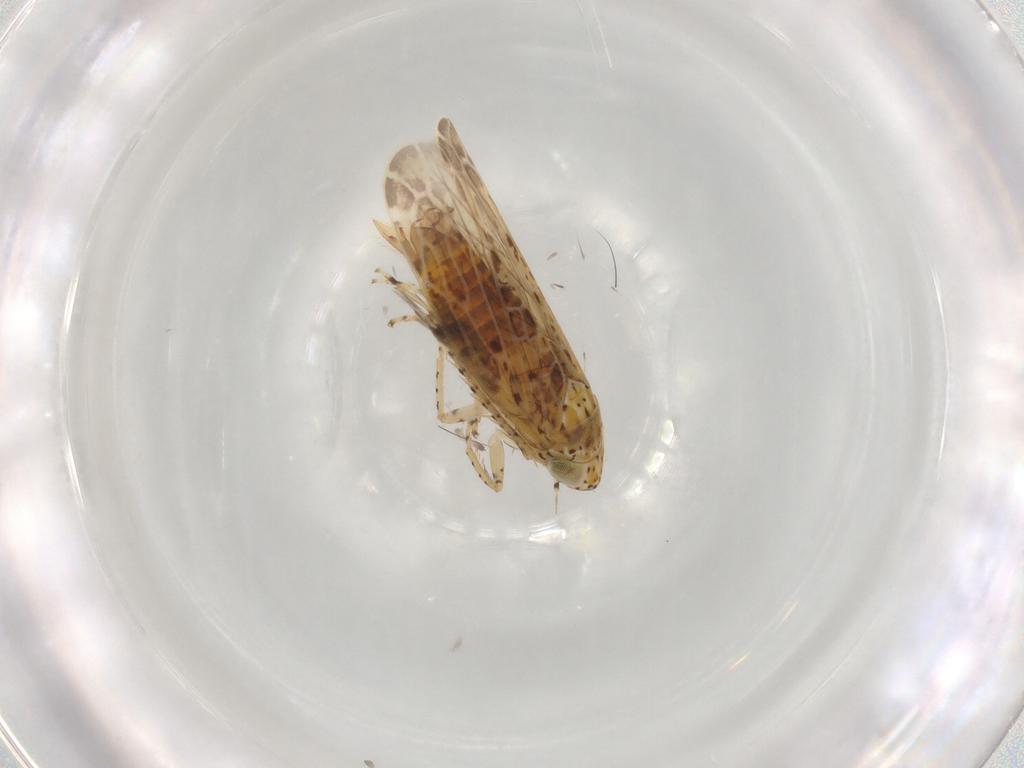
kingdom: Animalia
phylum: Arthropoda
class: Insecta
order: Hemiptera
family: Cicadellidae
